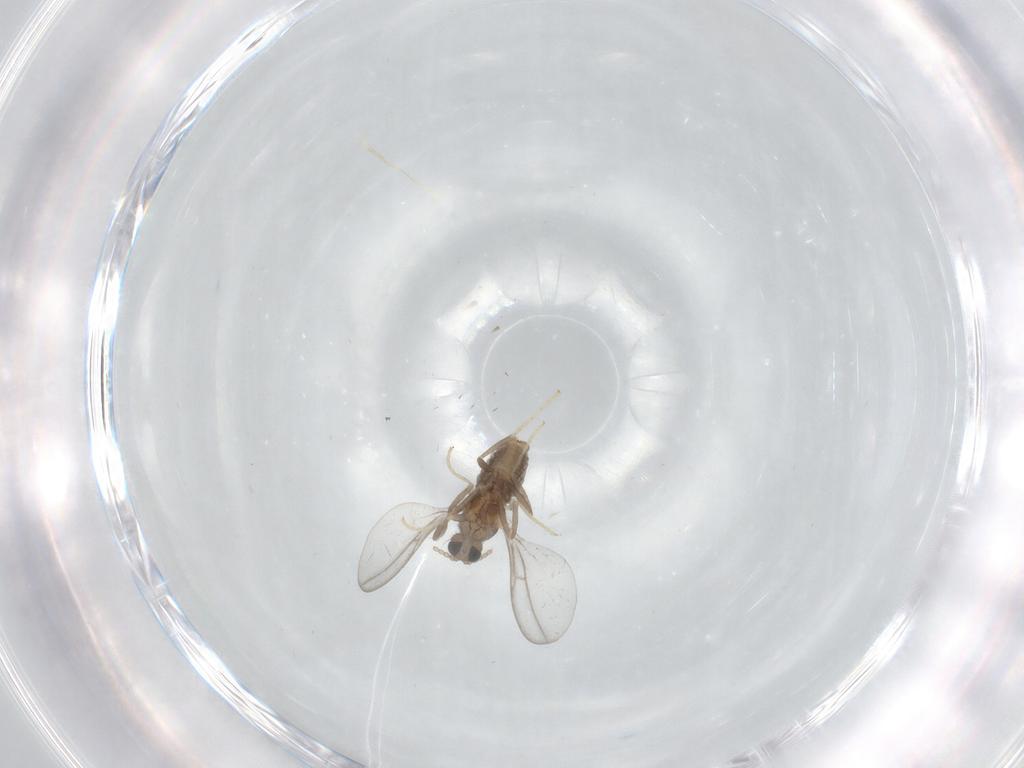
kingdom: Animalia
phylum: Arthropoda
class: Insecta
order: Diptera
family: Cecidomyiidae
